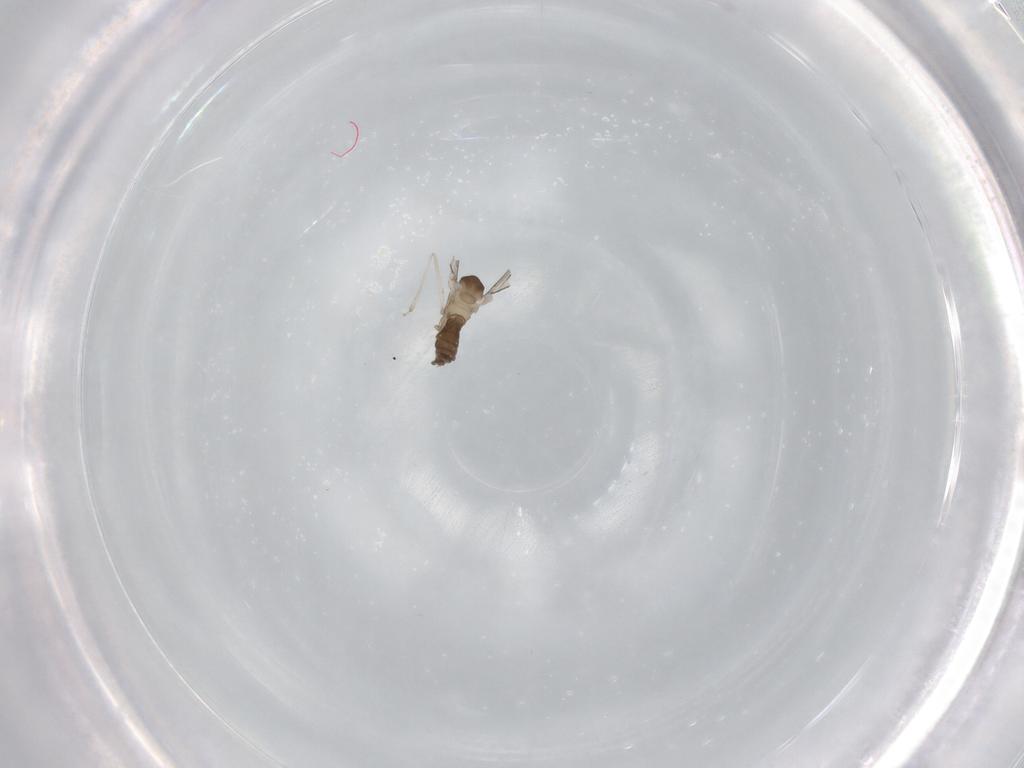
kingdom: Animalia
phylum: Arthropoda
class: Insecta
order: Diptera
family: Cecidomyiidae
